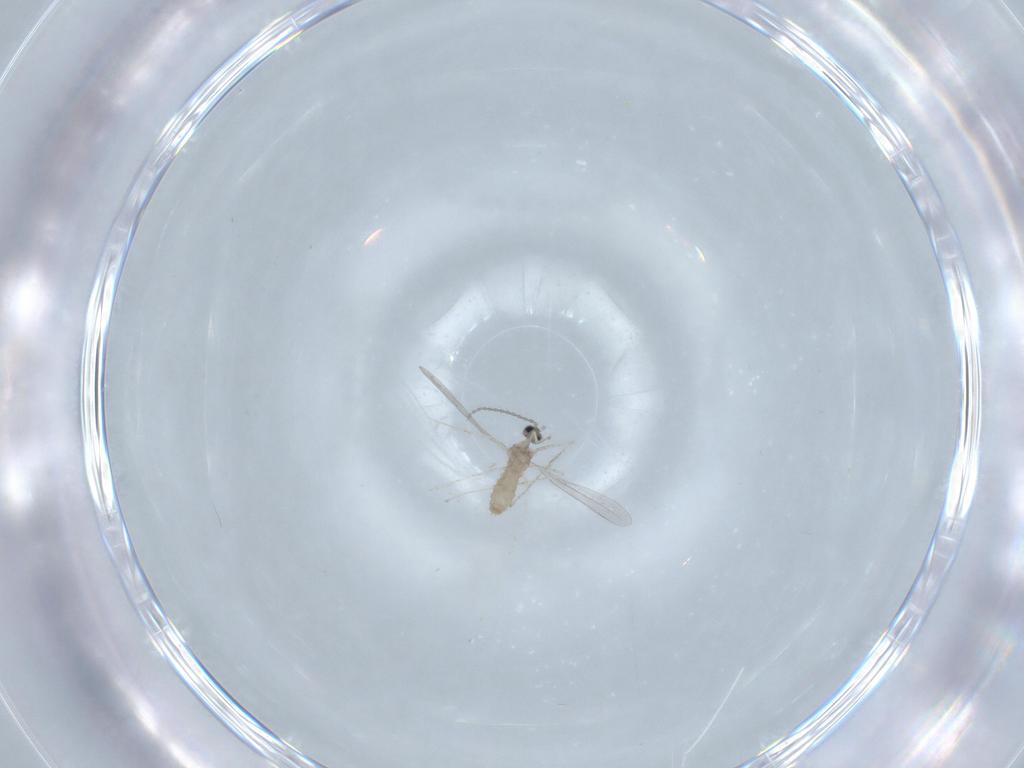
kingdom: Animalia
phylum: Arthropoda
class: Insecta
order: Diptera
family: Cecidomyiidae
